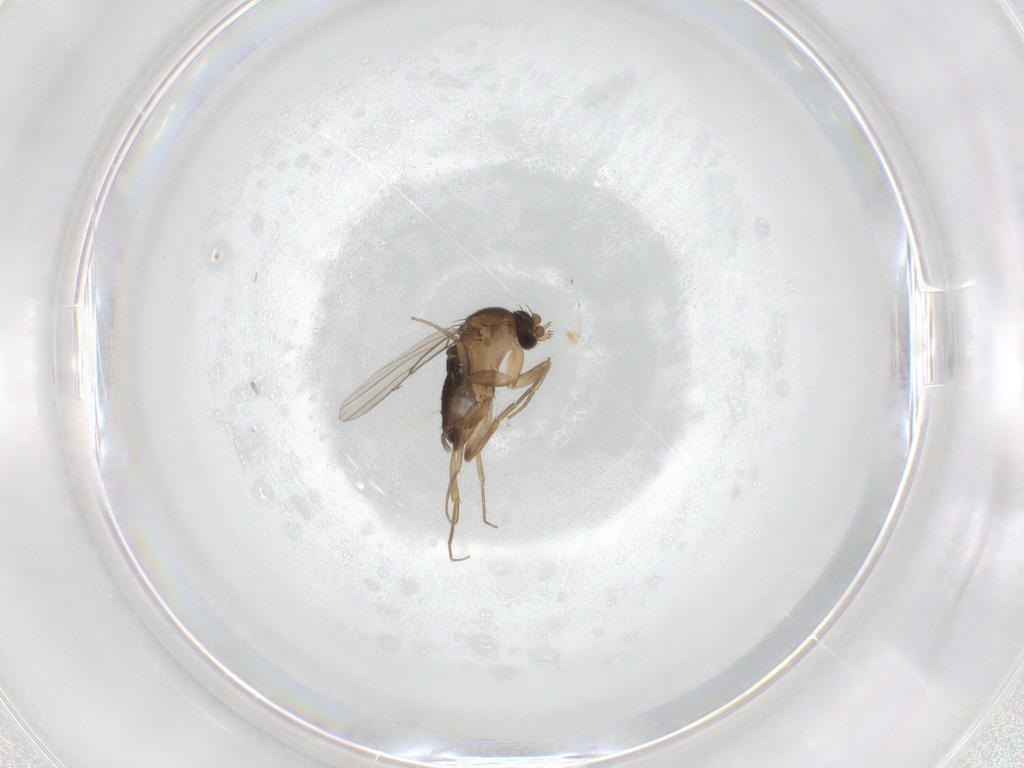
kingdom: Animalia
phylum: Arthropoda
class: Insecta
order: Diptera
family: Phoridae
